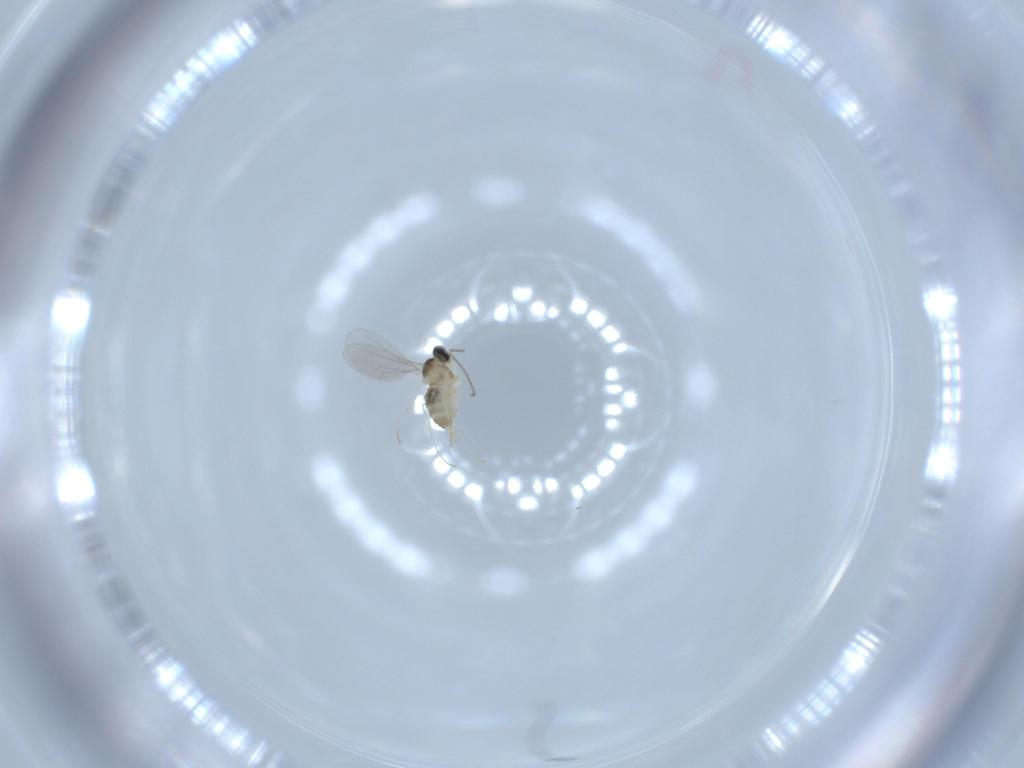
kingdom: Animalia
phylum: Arthropoda
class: Insecta
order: Diptera
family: Cecidomyiidae
